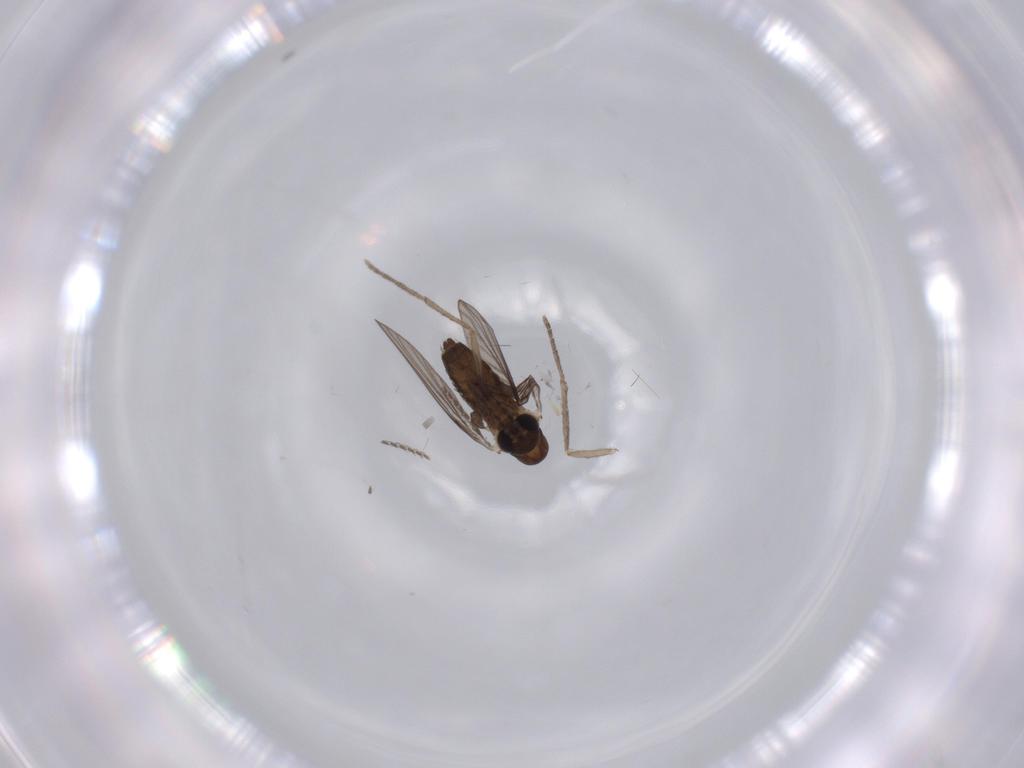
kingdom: Animalia
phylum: Arthropoda
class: Insecta
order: Diptera
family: Psychodidae
